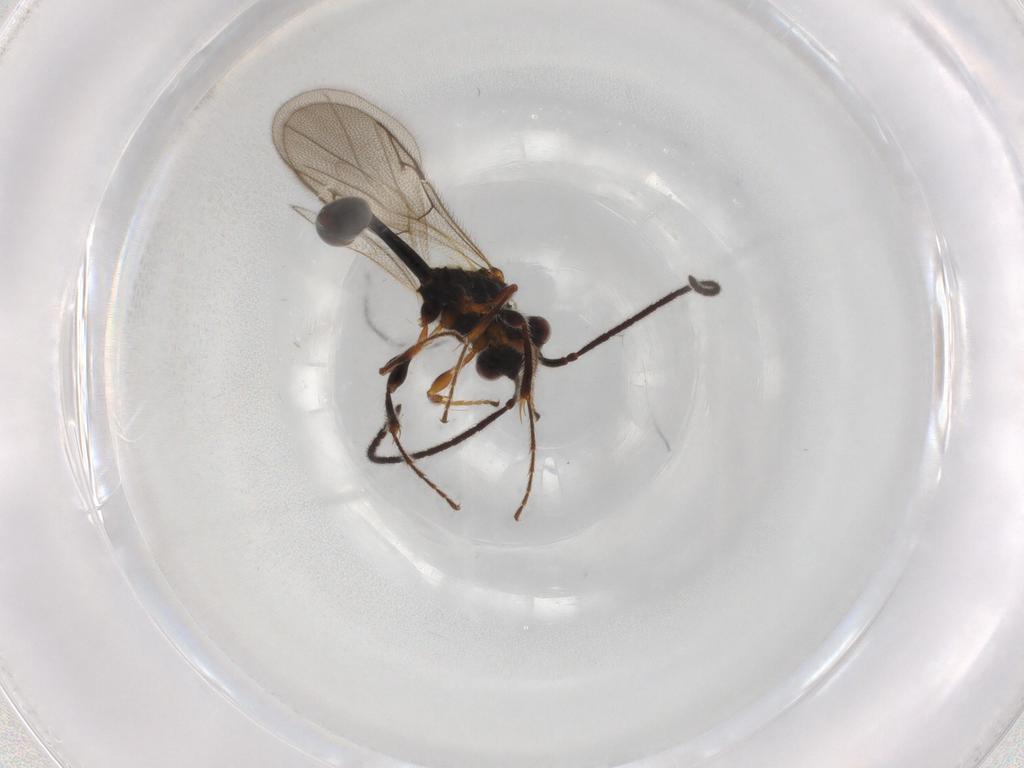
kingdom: Animalia
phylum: Arthropoda
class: Insecta
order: Hymenoptera
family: Diapriidae
